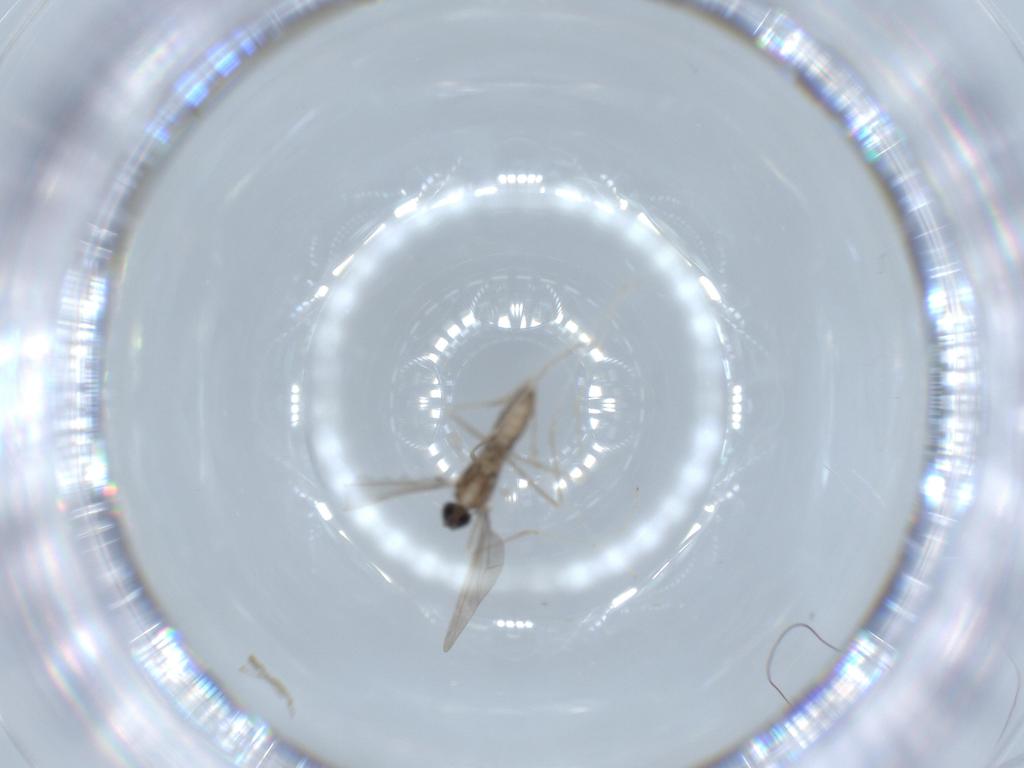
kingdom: Animalia
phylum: Arthropoda
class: Insecta
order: Diptera
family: Cecidomyiidae
